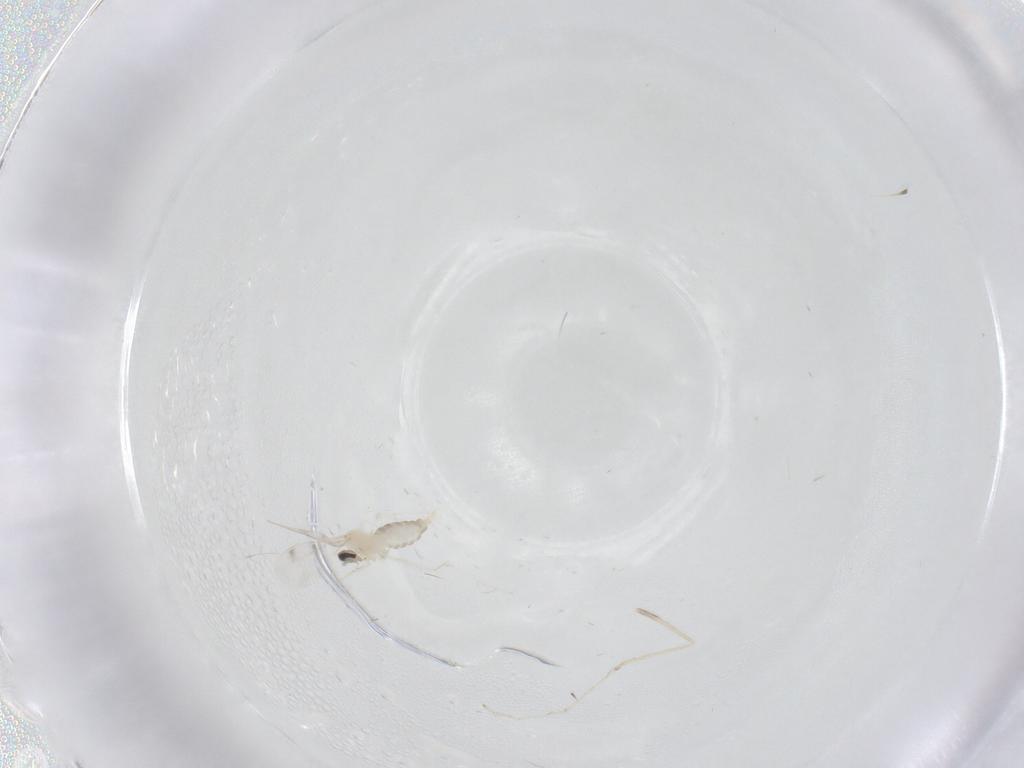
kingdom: Animalia
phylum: Arthropoda
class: Insecta
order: Diptera
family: Cecidomyiidae
